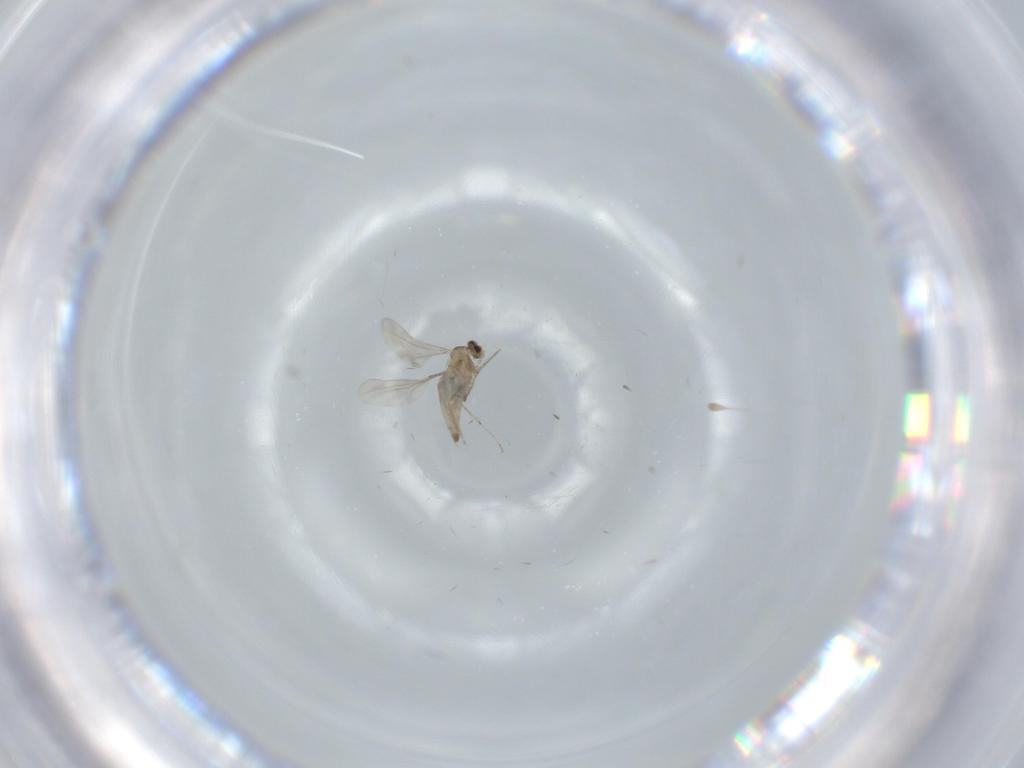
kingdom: Animalia
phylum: Arthropoda
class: Insecta
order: Diptera
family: Cecidomyiidae
